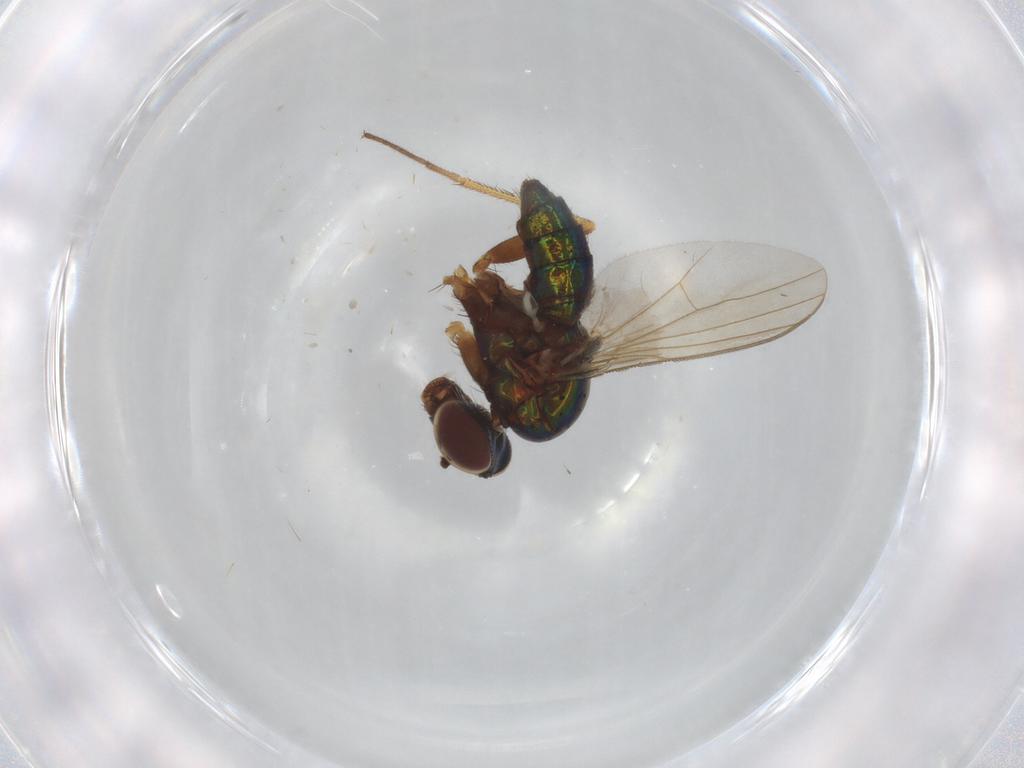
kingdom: Animalia
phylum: Arthropoda
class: Insecta
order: Diptera
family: Dolichopodidae
